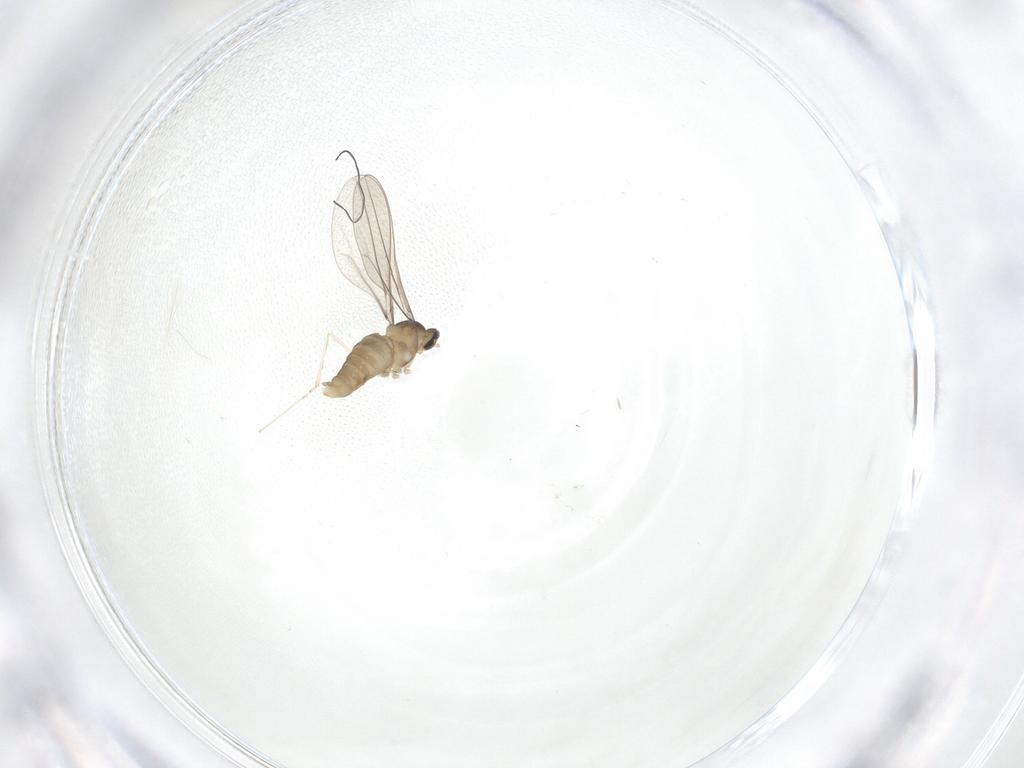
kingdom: Animalia
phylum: Arthropoda
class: Insecta
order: Diptera
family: Cecidomyiidae
